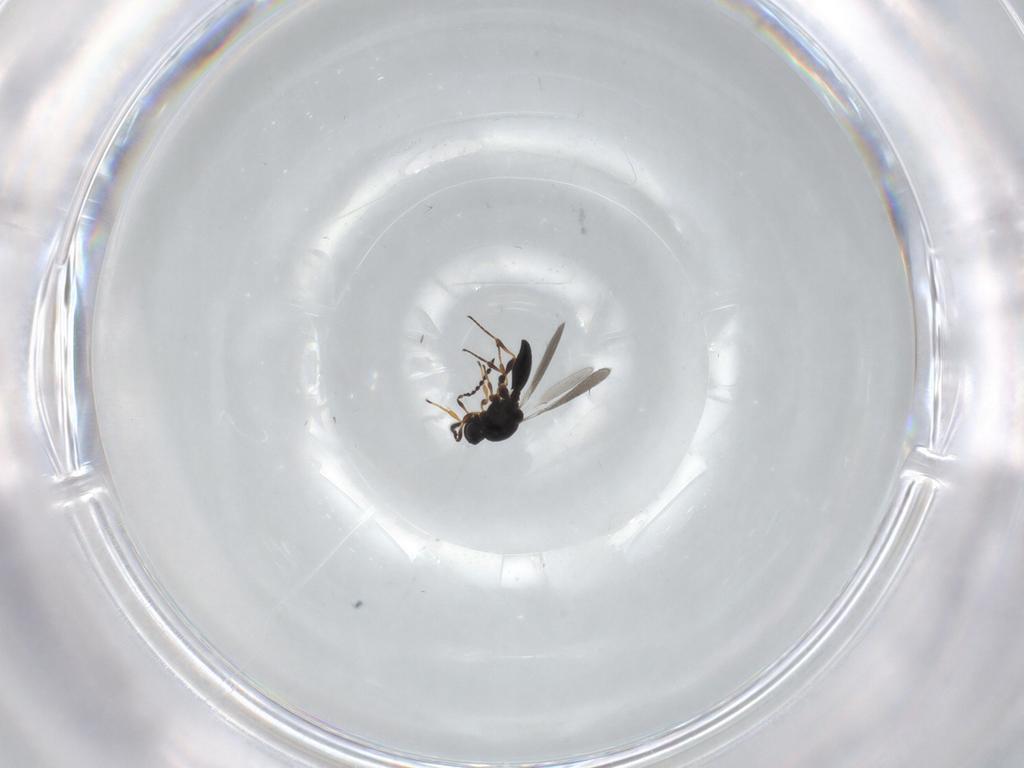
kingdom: Animalia
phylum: Arthropoda
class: Insecta
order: Hymenoptera
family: Platygastridae
